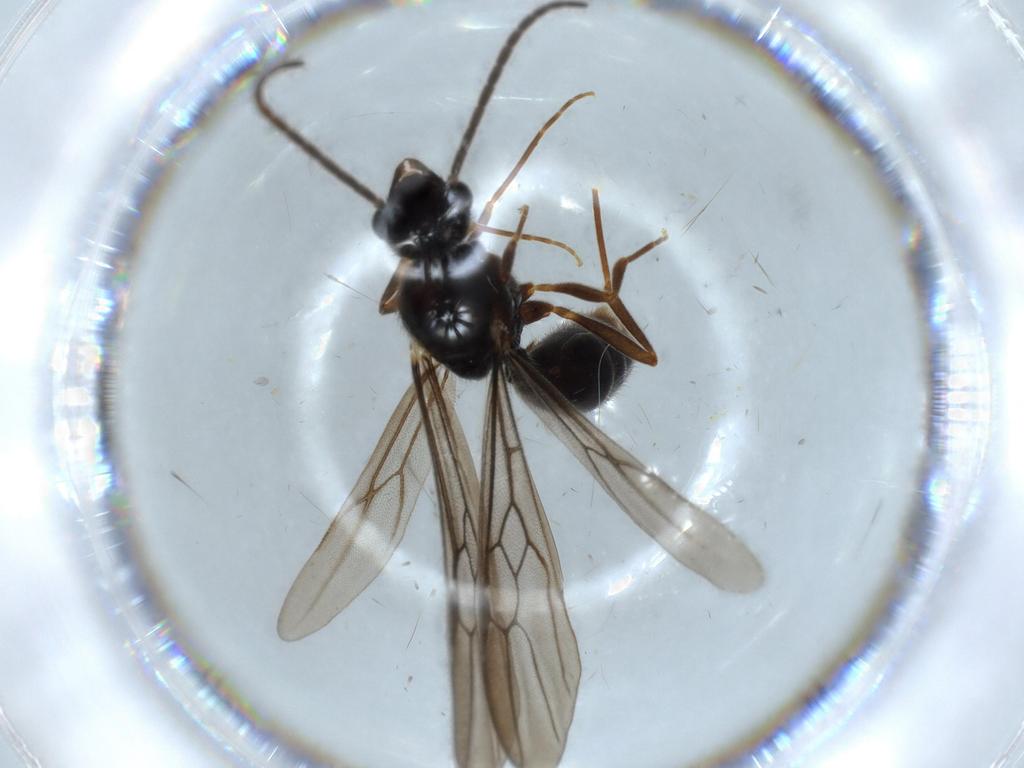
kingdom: Animalia
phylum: Arthropoda
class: Insecta
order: Hymenoptera
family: Formicidae
